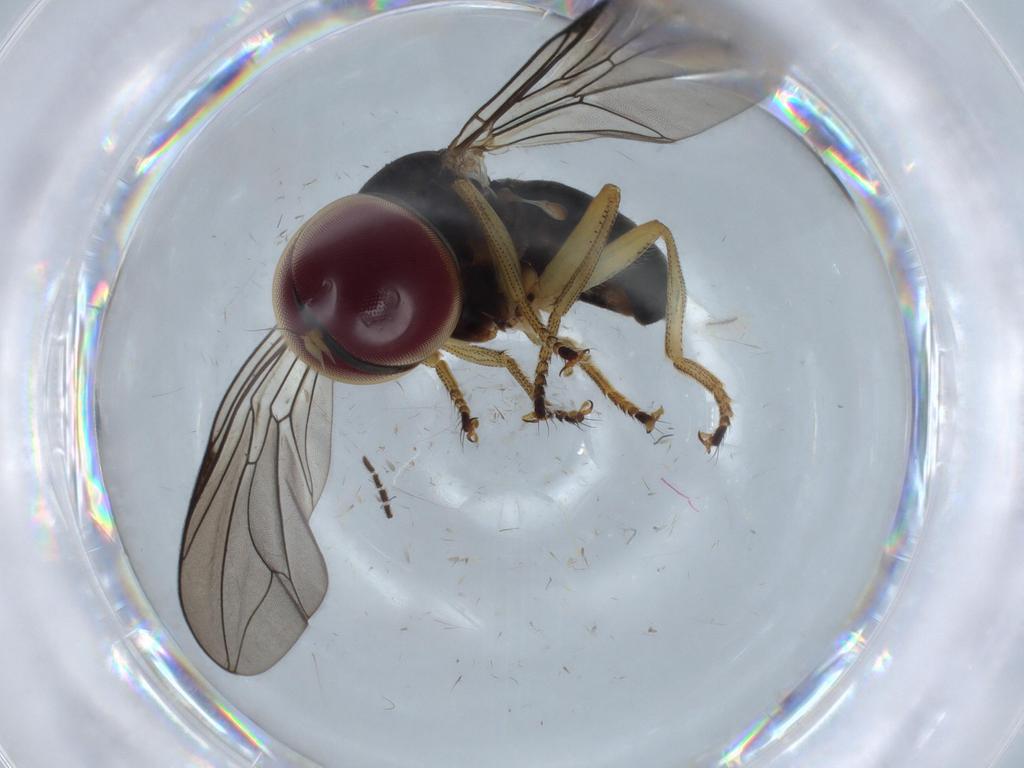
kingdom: Animalia
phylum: Arthropoda
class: Insecta
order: Diptera
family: Pipunculidae
